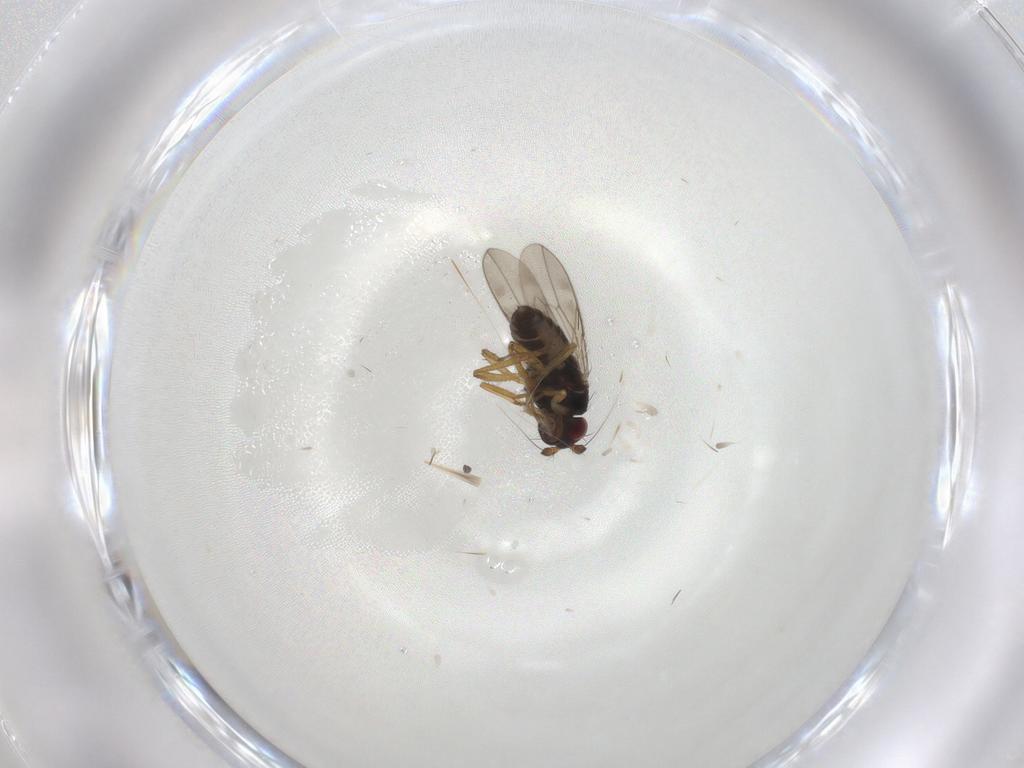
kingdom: Animalia
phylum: Arthropoda
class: Insecta
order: Diptera
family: Sphaeroceridae
